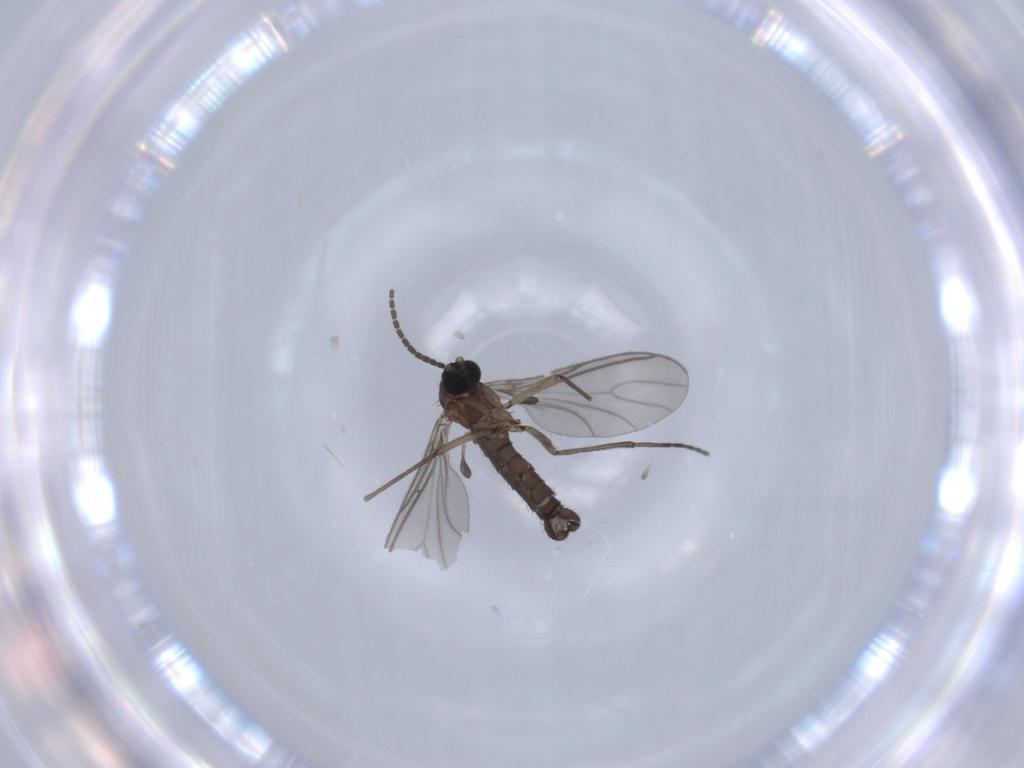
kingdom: Animalia
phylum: Arthropoda
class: Insecta
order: Diptera
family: Sciaridae
